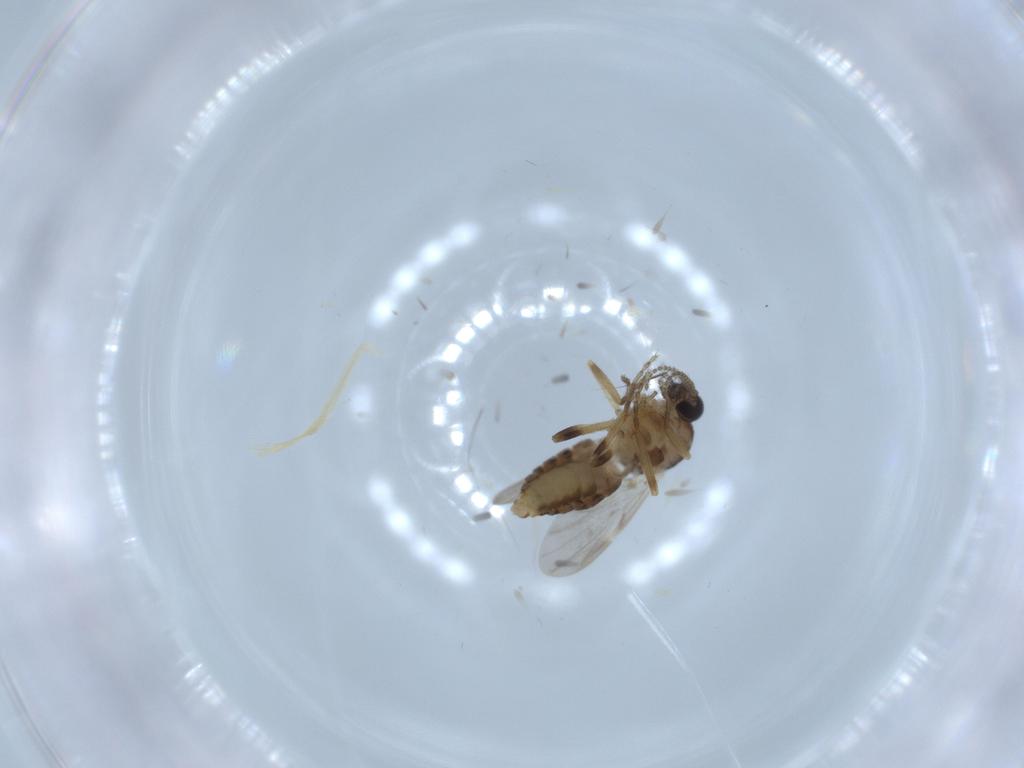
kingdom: Animalia
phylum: Arthropoda
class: Insecta
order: Diptera
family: Ceratopogonidae
